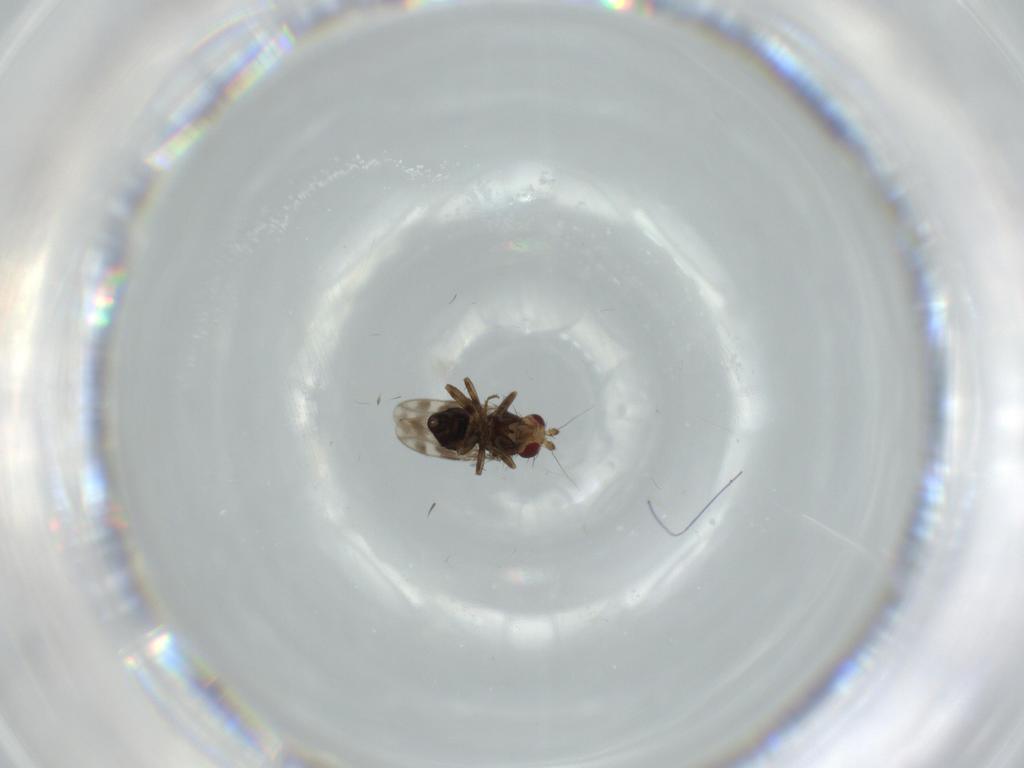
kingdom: Animalia
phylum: Arthropoda
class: Insecta
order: Diptera
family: Sphaeroceridae
